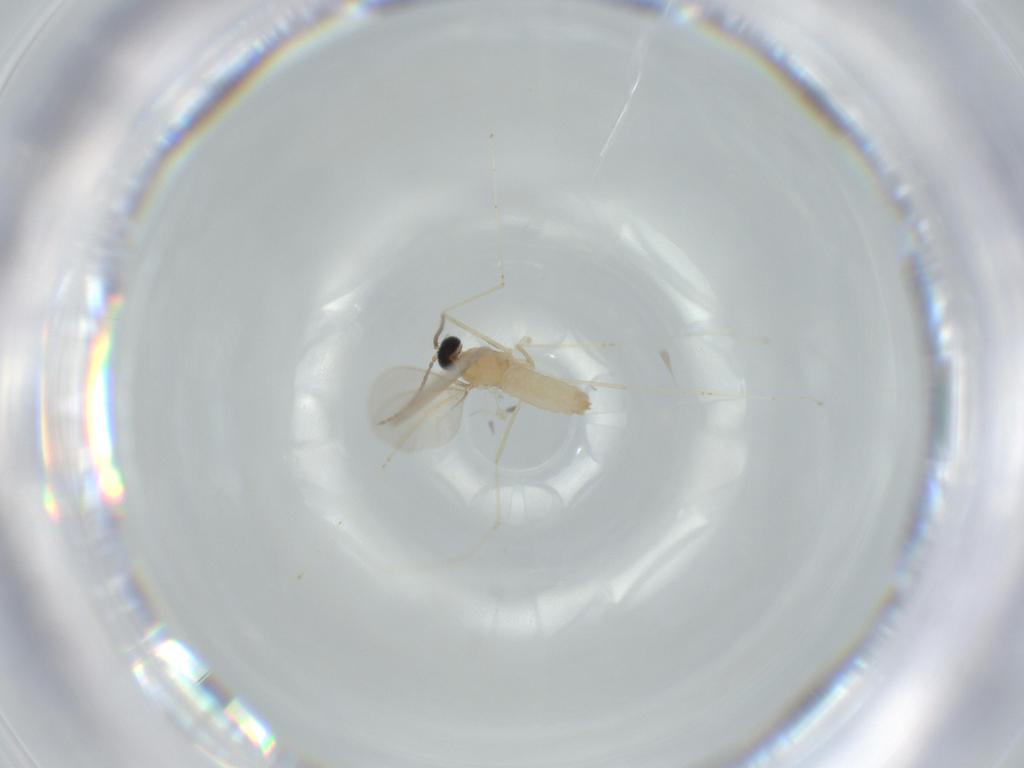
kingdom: Animalia
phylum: Arthropoda
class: Insecta
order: Diptera
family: Cecidomyiidae
